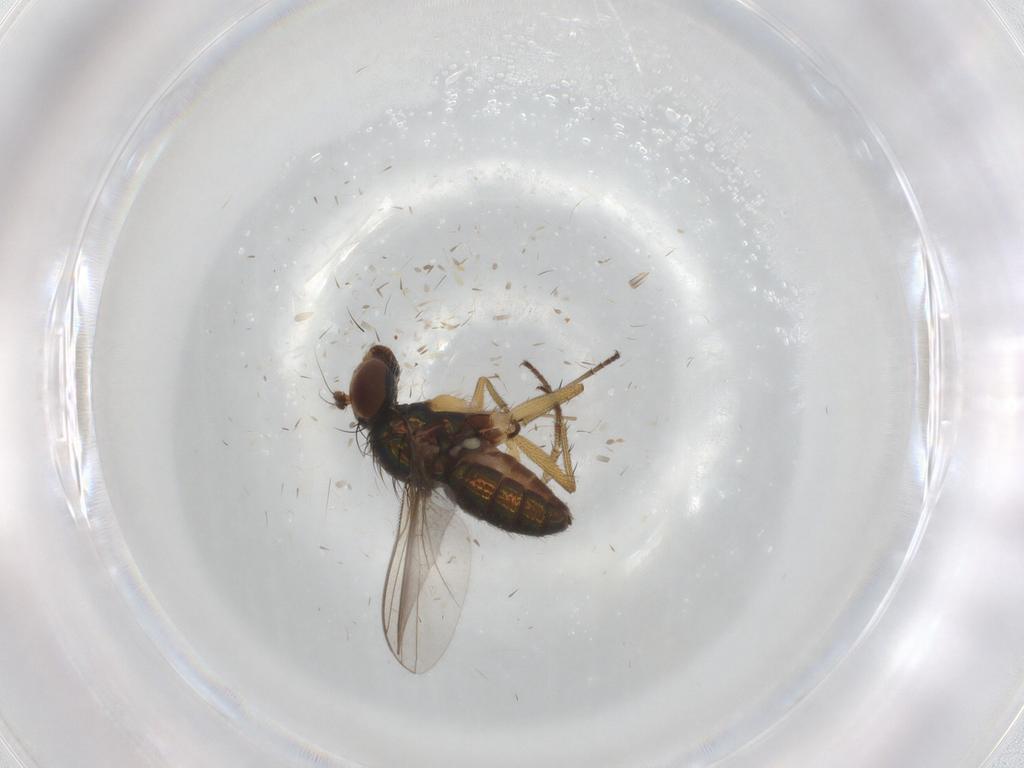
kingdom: Animalia
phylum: Arthropoda
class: Insecta
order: Diptera
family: Chironomidae
